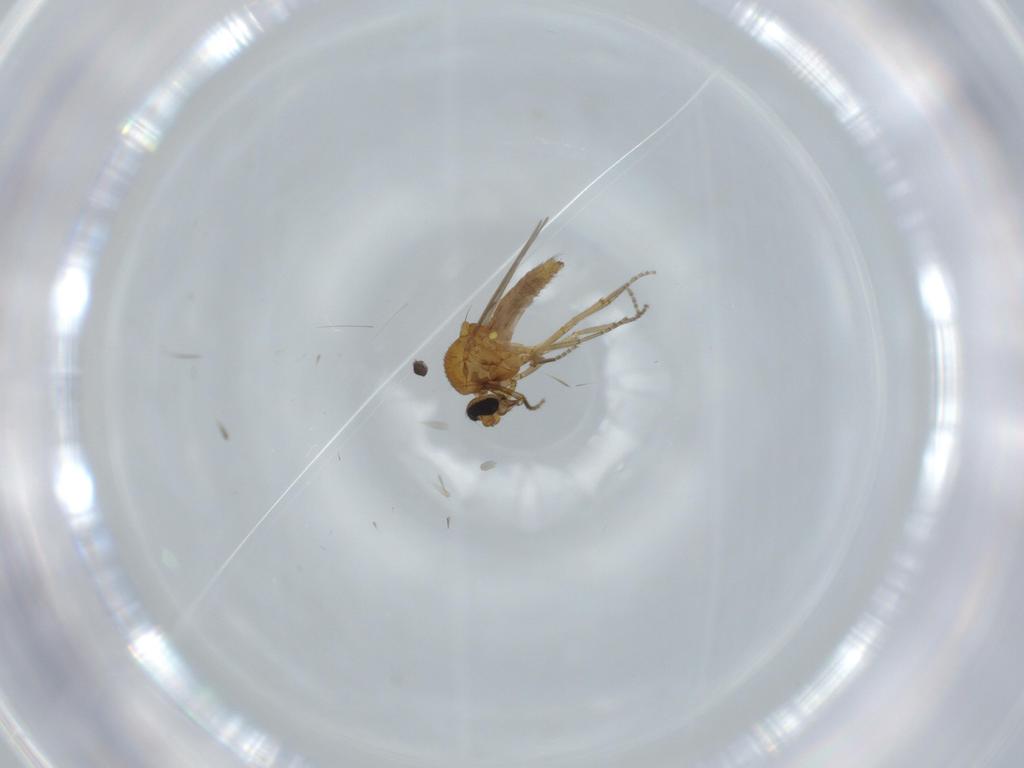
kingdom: Animalia
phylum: Arthropoda
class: Insecta
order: Diptera
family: Ceratopogonidae
